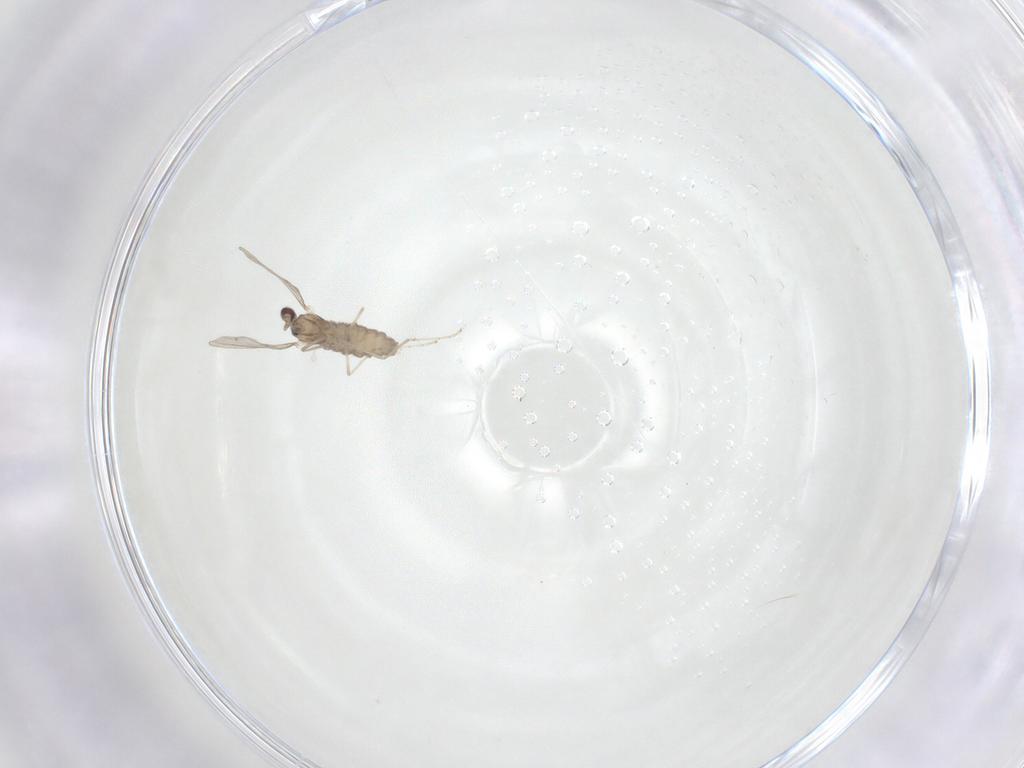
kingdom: Animalia
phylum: Arthropoda
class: Insecta
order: Diptera
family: Cecidomyiidae
